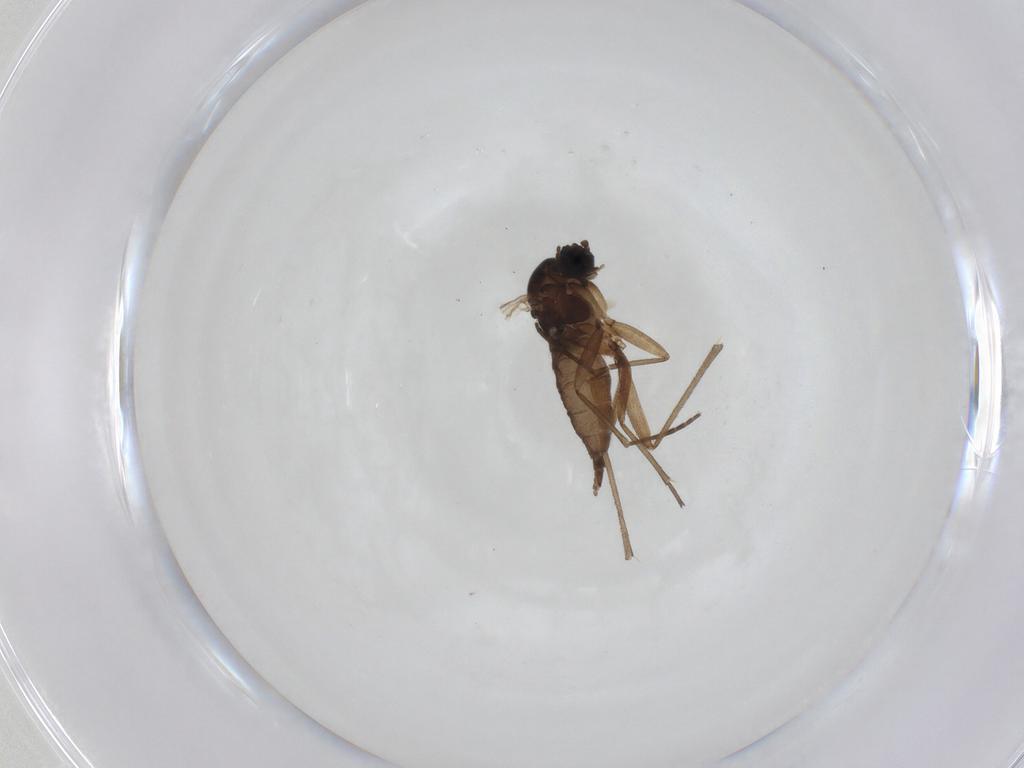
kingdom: Animalia
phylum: Arthropoda
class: Insecta
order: Diptera
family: Sciaridae
